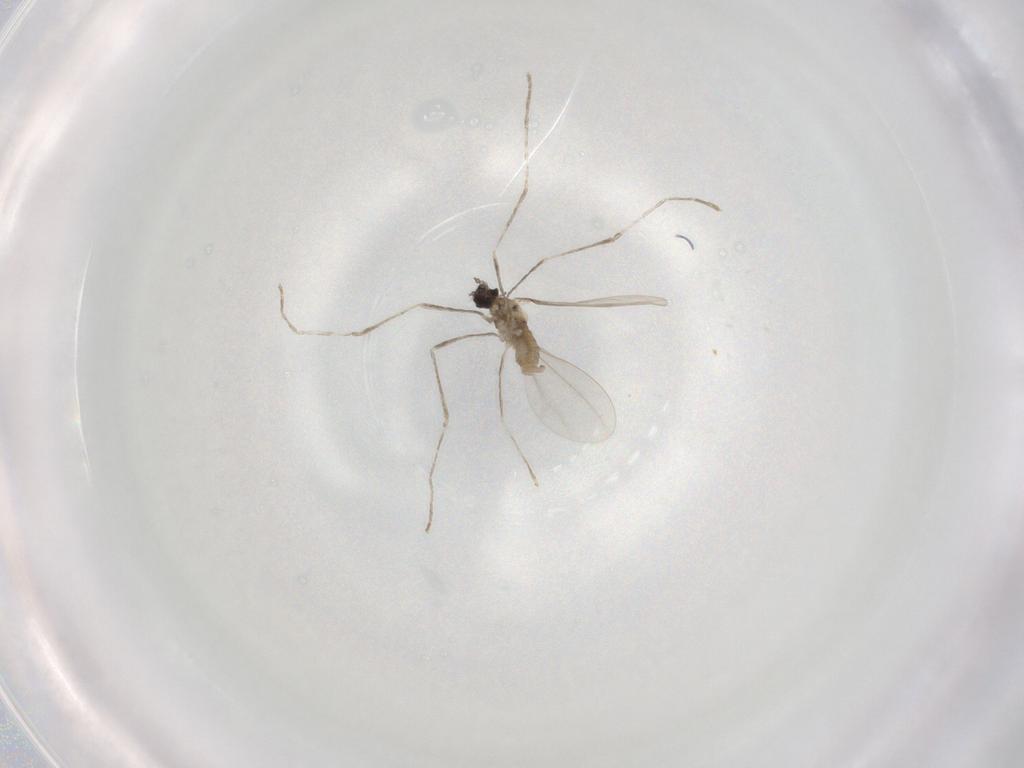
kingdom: Animalia
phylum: Arthropoda
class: Insecta
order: Diptera
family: Cecidomyiidae
